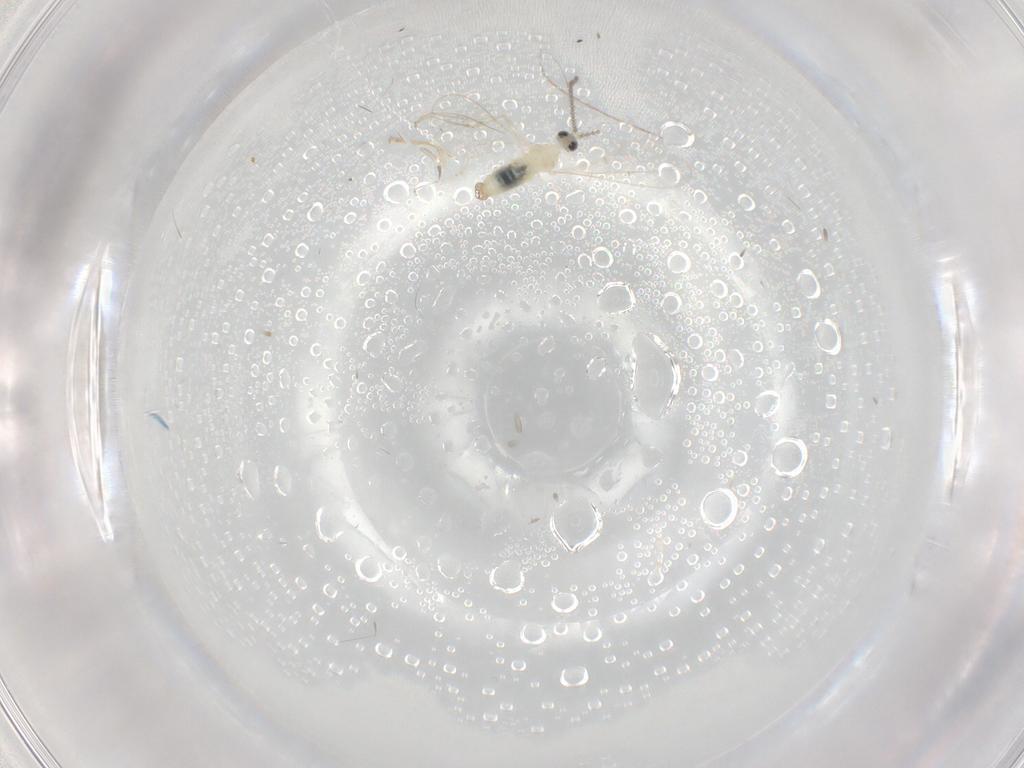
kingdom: Animalia
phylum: Arthropoda
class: Insecta
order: Diptera
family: Cecidomyiidae
